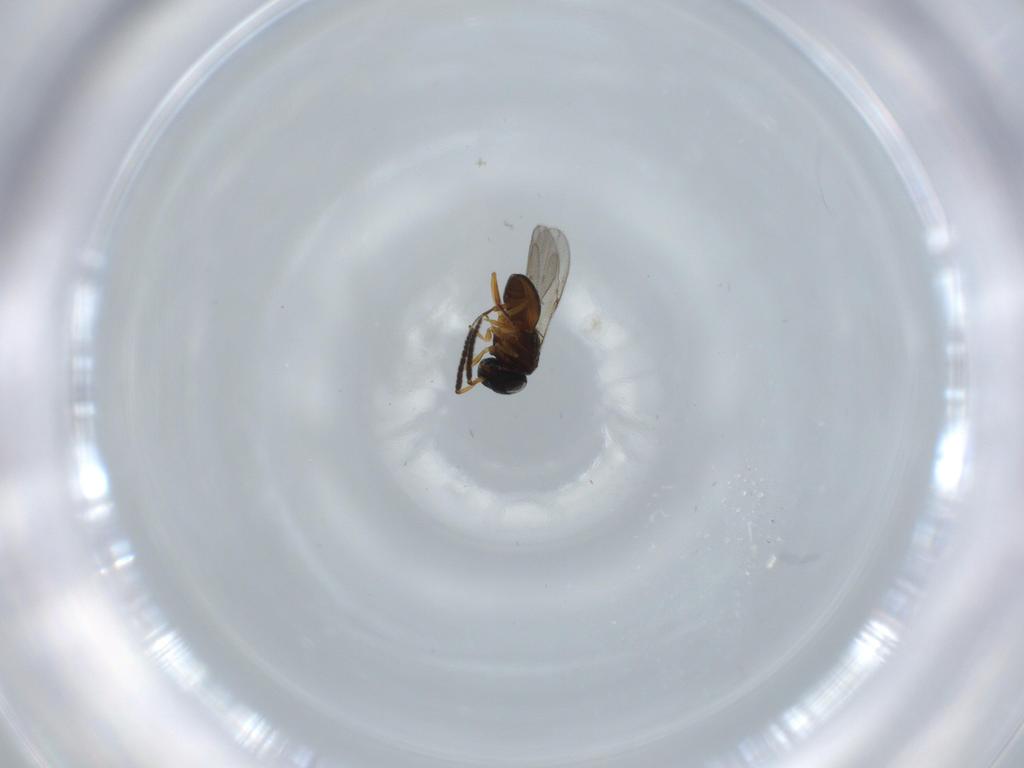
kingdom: Animalia
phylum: Arthropoda
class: Insecta
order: Hymenoptera
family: Scelionidae
